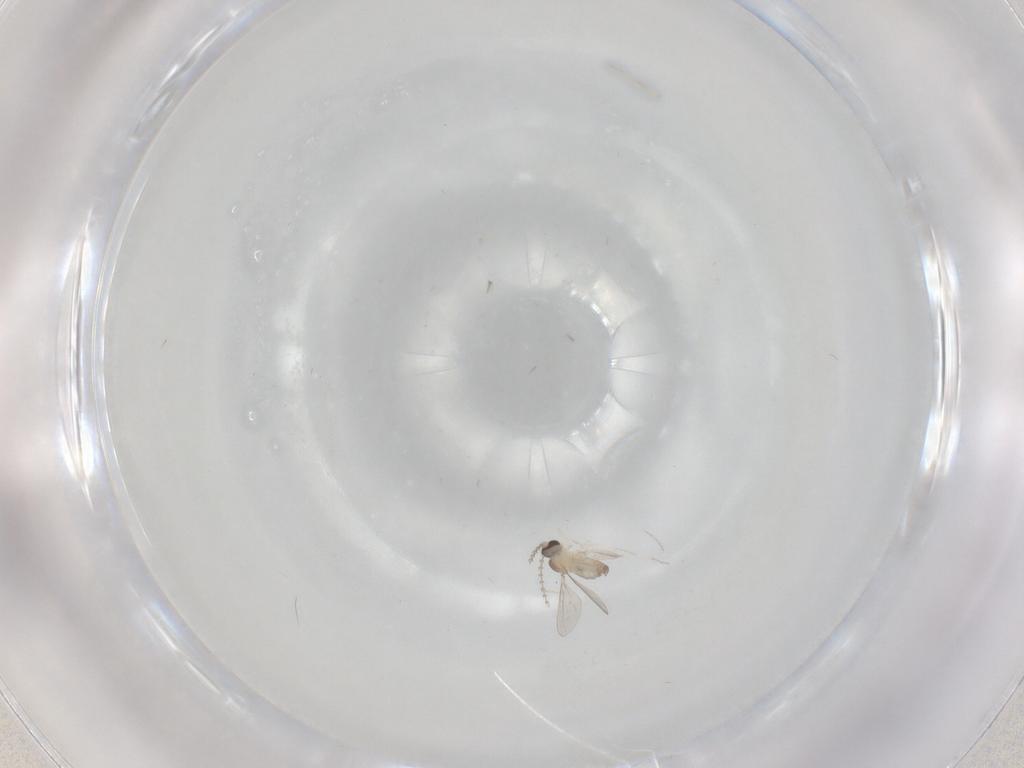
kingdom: Animalia
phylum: Arthropoda
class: Insecta
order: Diptera
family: Cecidomyiidae
